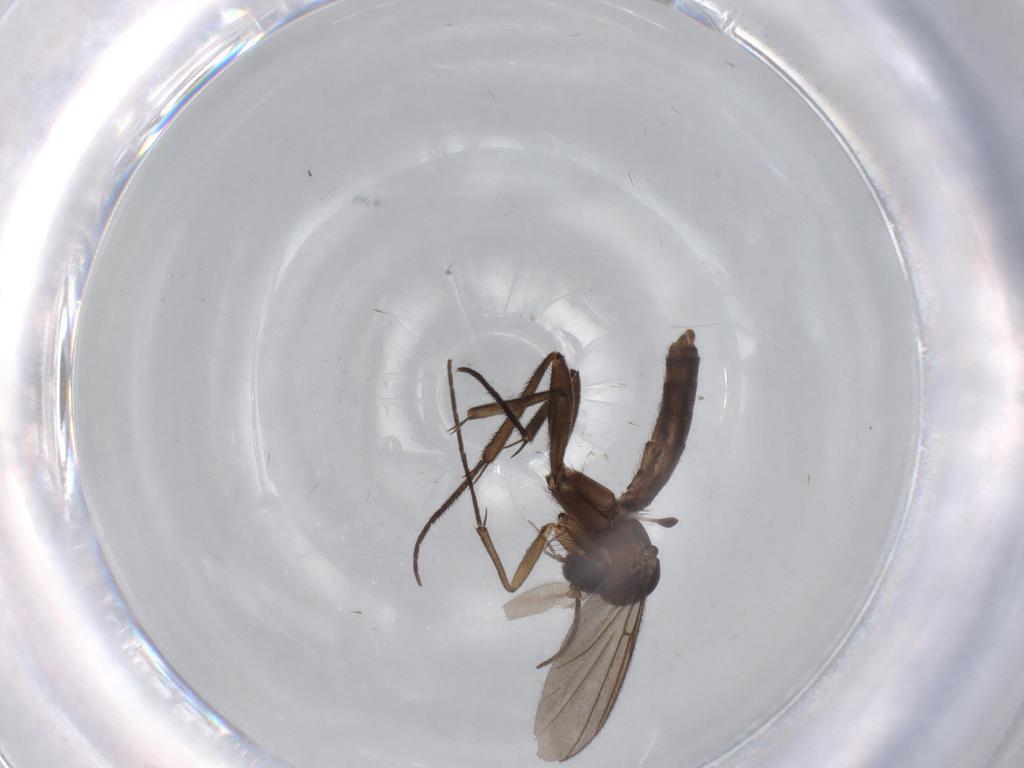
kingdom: Animalia
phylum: Arthropoda
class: Insecta
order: Diptera
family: Mycetophilidae
